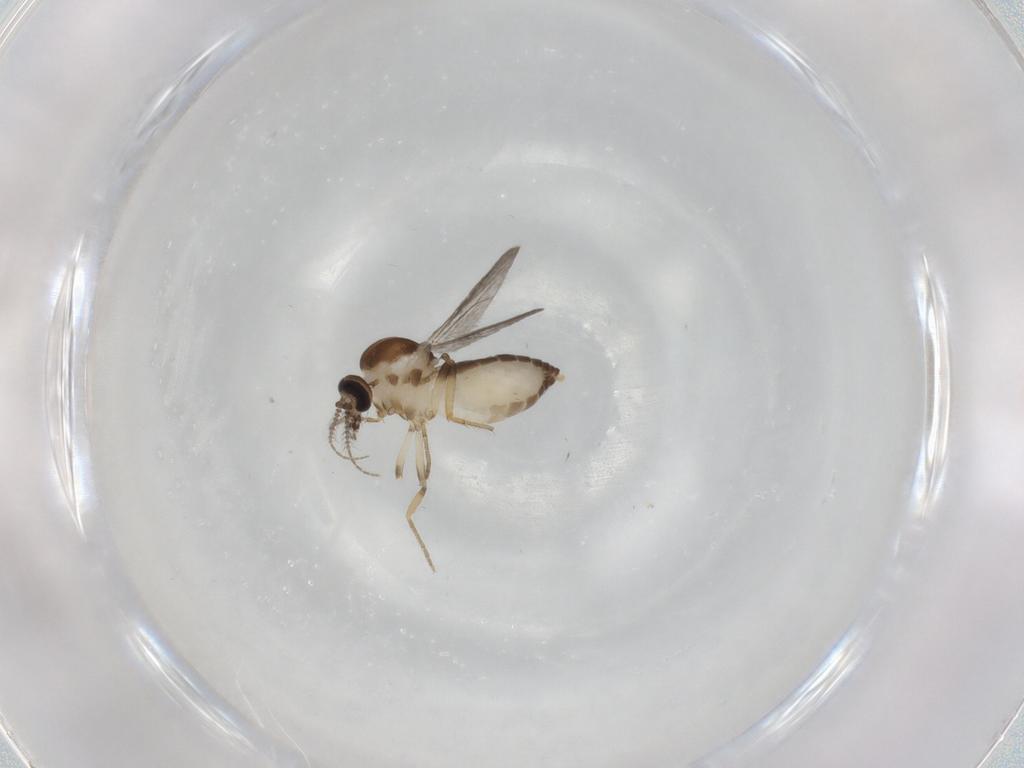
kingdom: Animalia
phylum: Arthropoda
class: Insecta
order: Diptera
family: Ceratopogonidae
